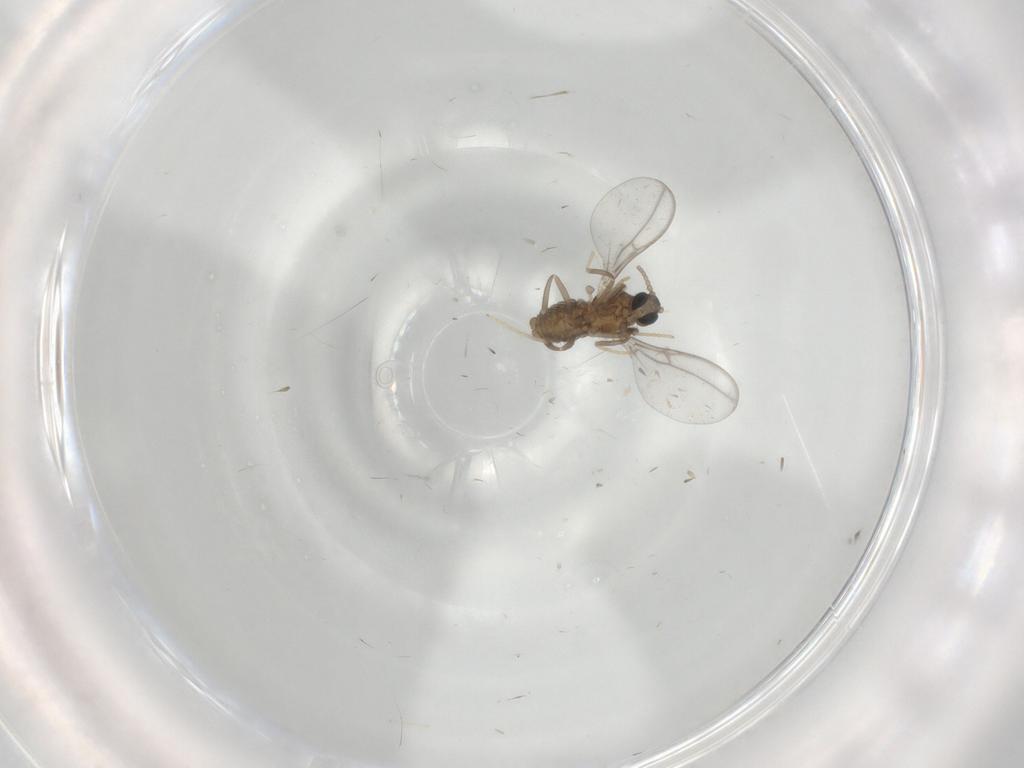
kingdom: Animalia
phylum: Arthropoda
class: Insecta
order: Diptera
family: Cecidomyiidae
